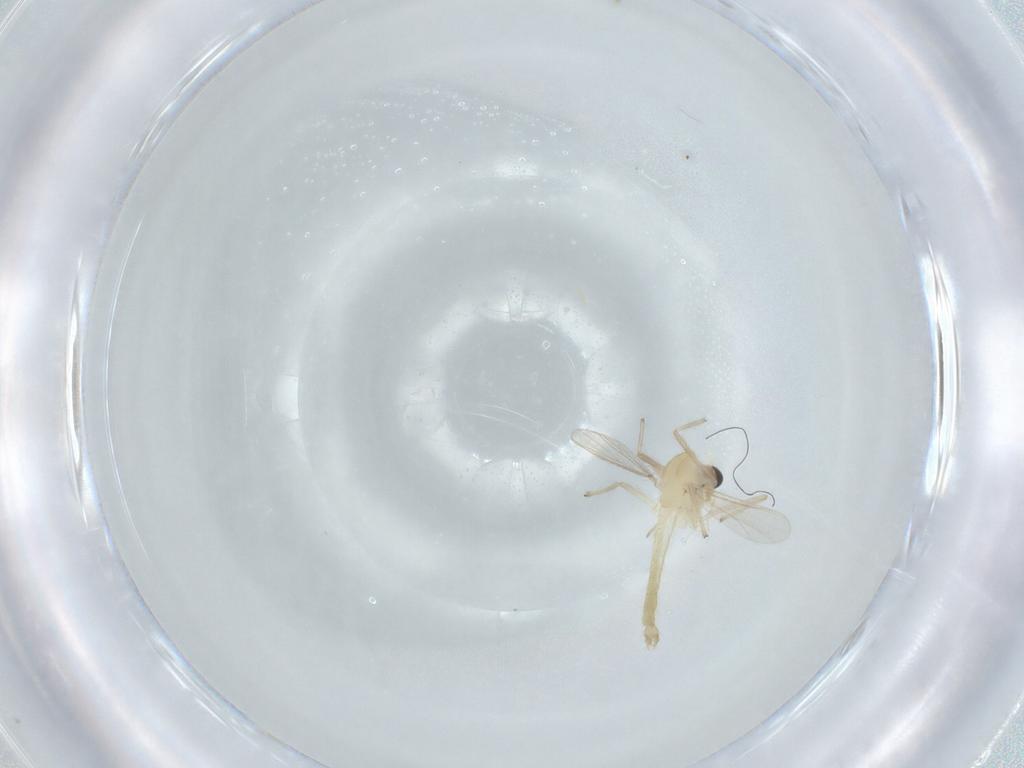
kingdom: Animalia
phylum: Arthropoda
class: Insecta
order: Diptera
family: Chironomidae
